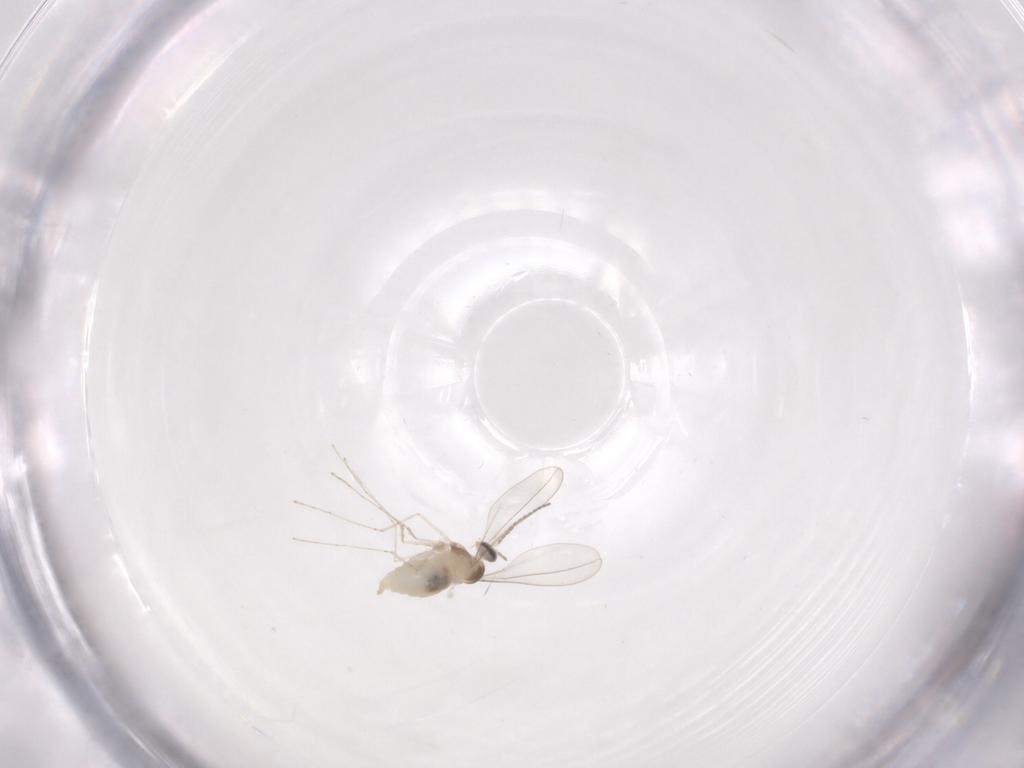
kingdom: Animalia
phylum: Arthropoda
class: Insecta
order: Diptera
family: Cecidomyiidae
